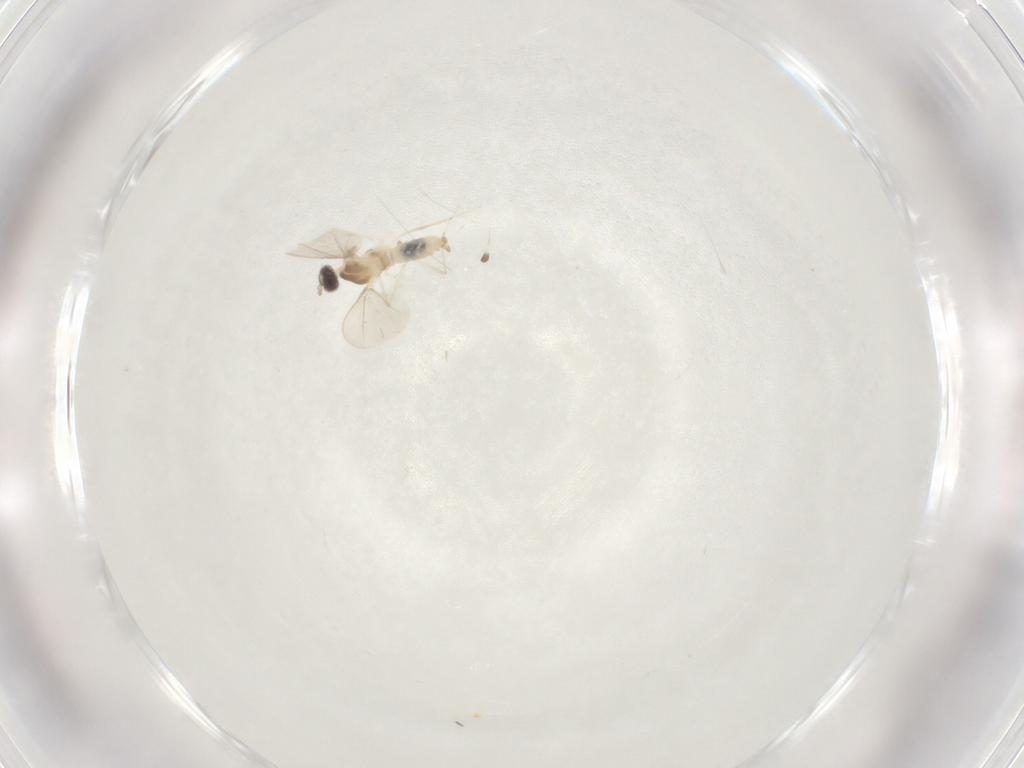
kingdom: Animalia
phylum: Arthropoda
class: Insecta
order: Diptera
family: Cecidomyiidae
